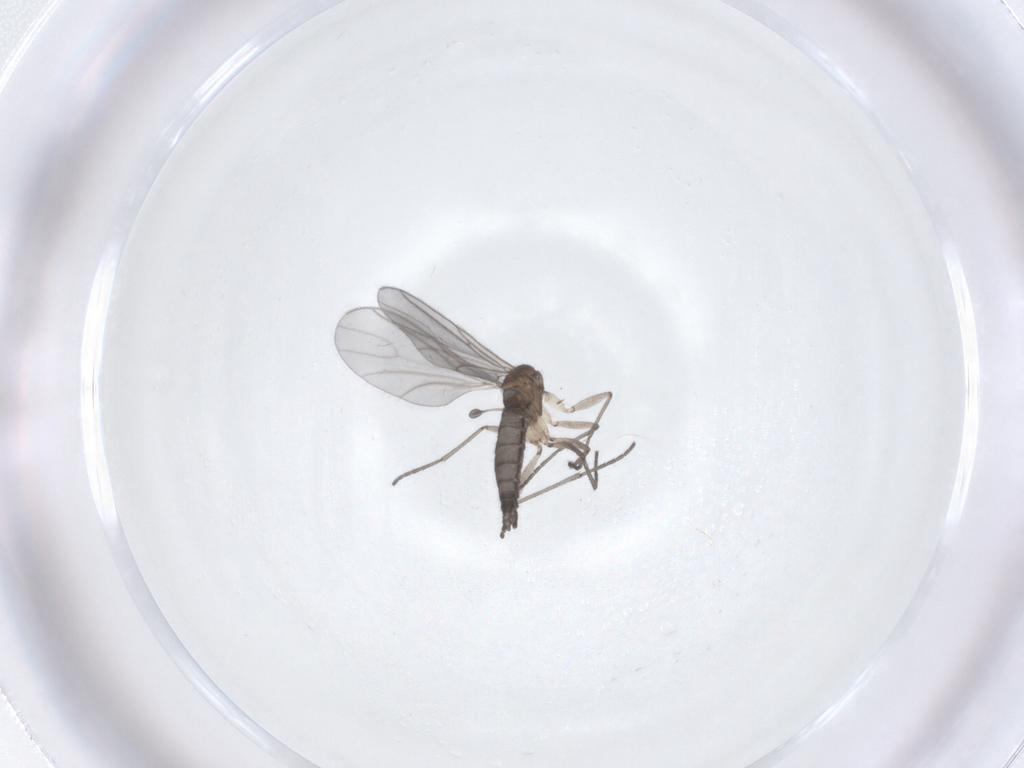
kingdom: Animalia
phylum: Arthropoda
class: Insecta
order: Diptera
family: Sciaridae
